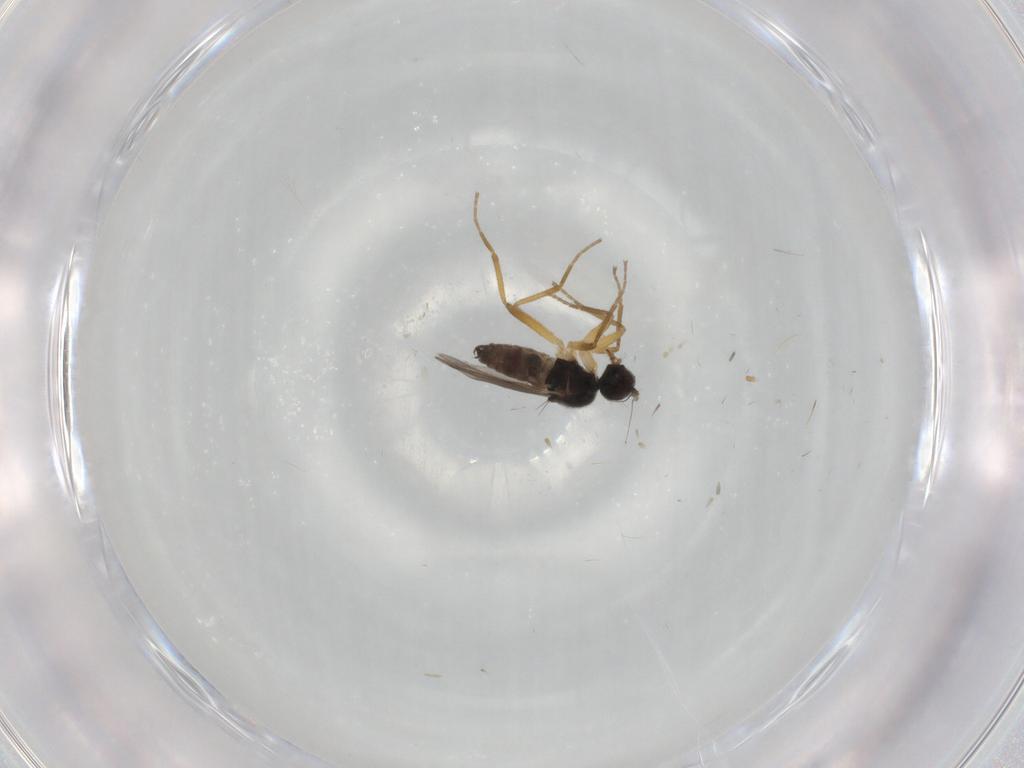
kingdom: Animalia
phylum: Arthropoda
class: Insecta
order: Diptera
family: Hybotidae
